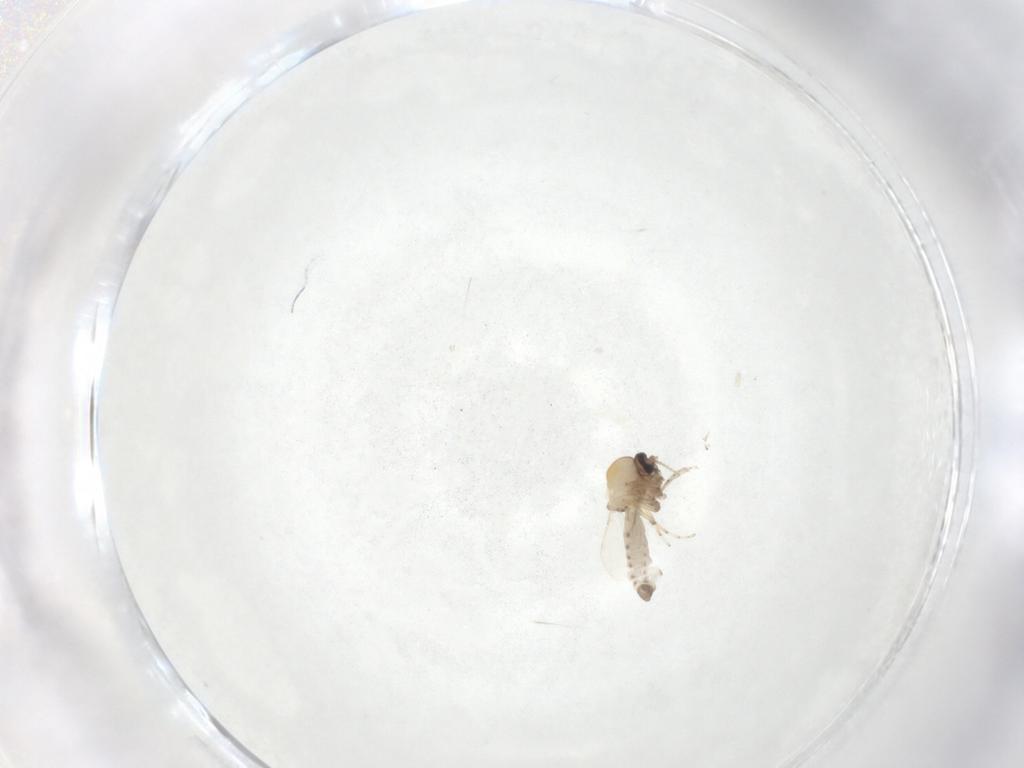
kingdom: Animalia
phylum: Arthropoda
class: Insecta
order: Diptera
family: Ceratopogonidae
